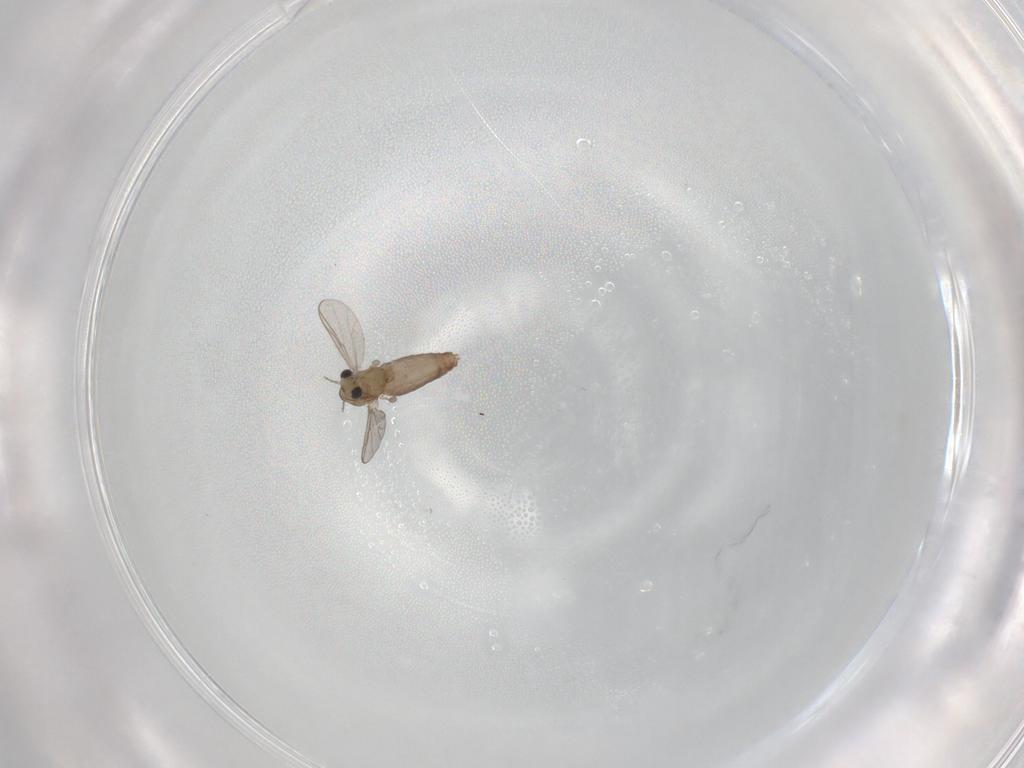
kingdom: Animalia
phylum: Arthropoda
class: Insecta
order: Diptera
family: Chironomidae
